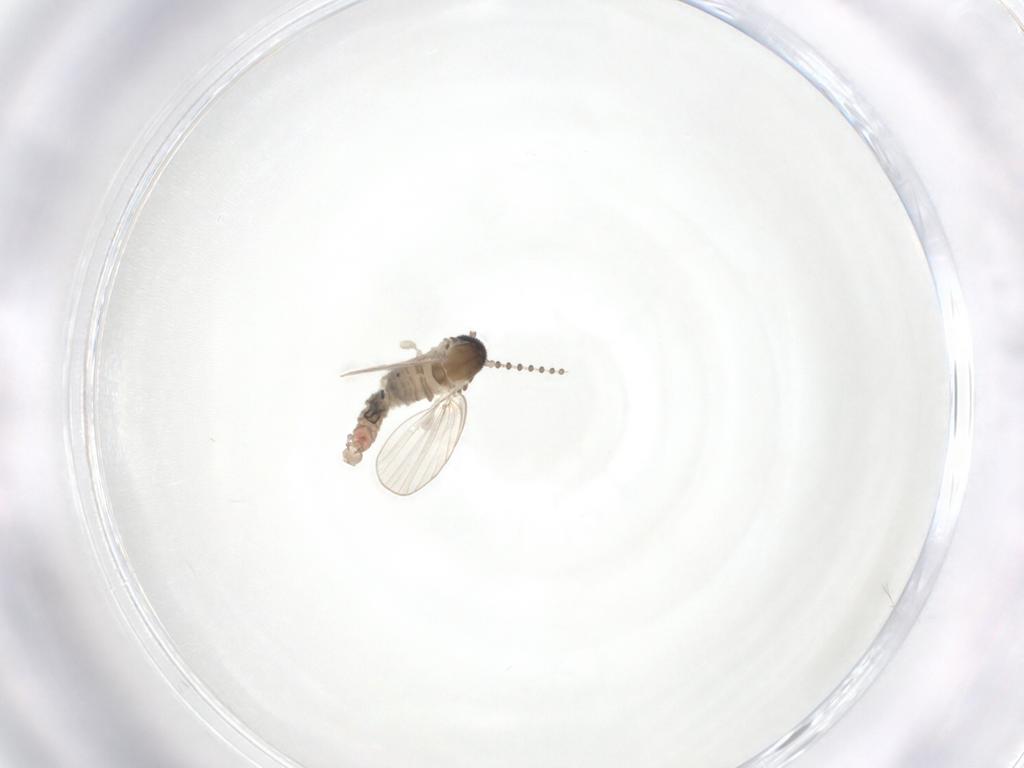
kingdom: Animalia
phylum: Arthropoda
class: Insecta
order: Diptera
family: Psychodidae
